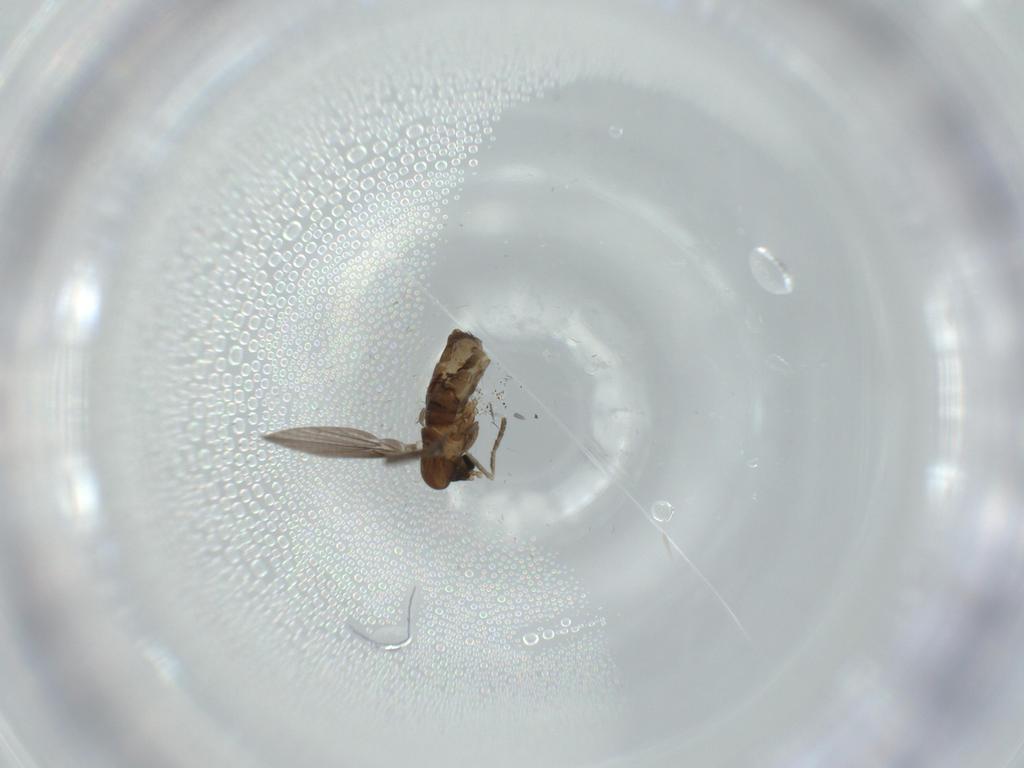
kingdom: Animalia
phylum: Arthropoda
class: Insecta
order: Diptera
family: Psychodidae
